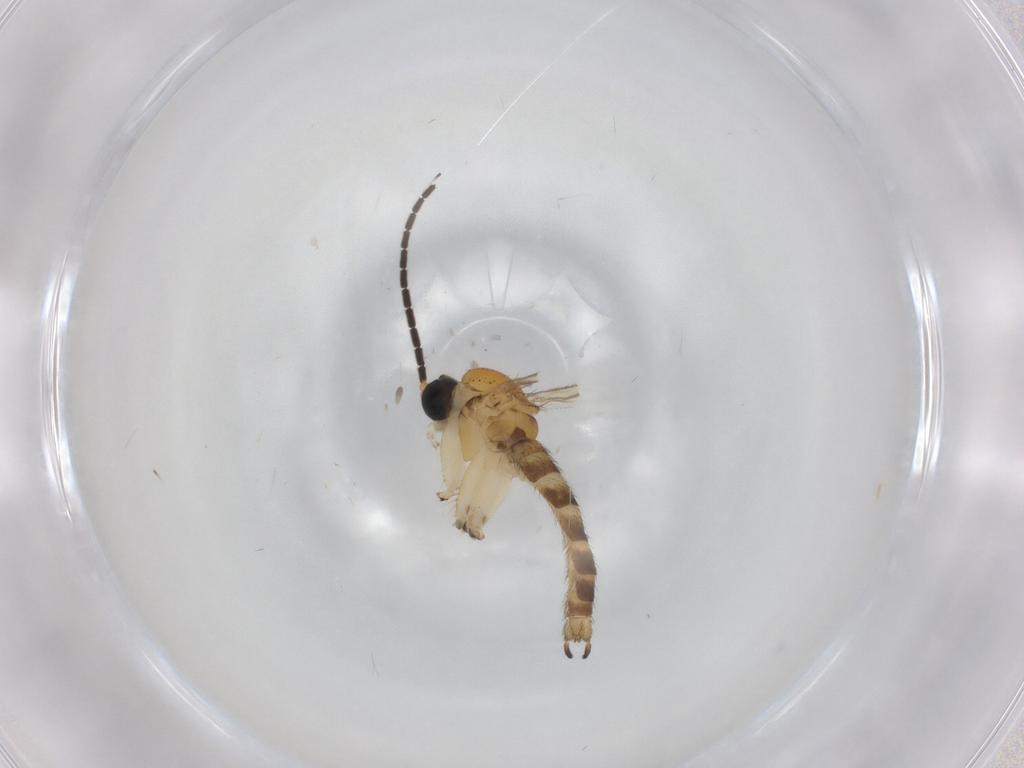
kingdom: Animalia
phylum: Arthropoda
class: Insecta
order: Diptera
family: Sciaridae
